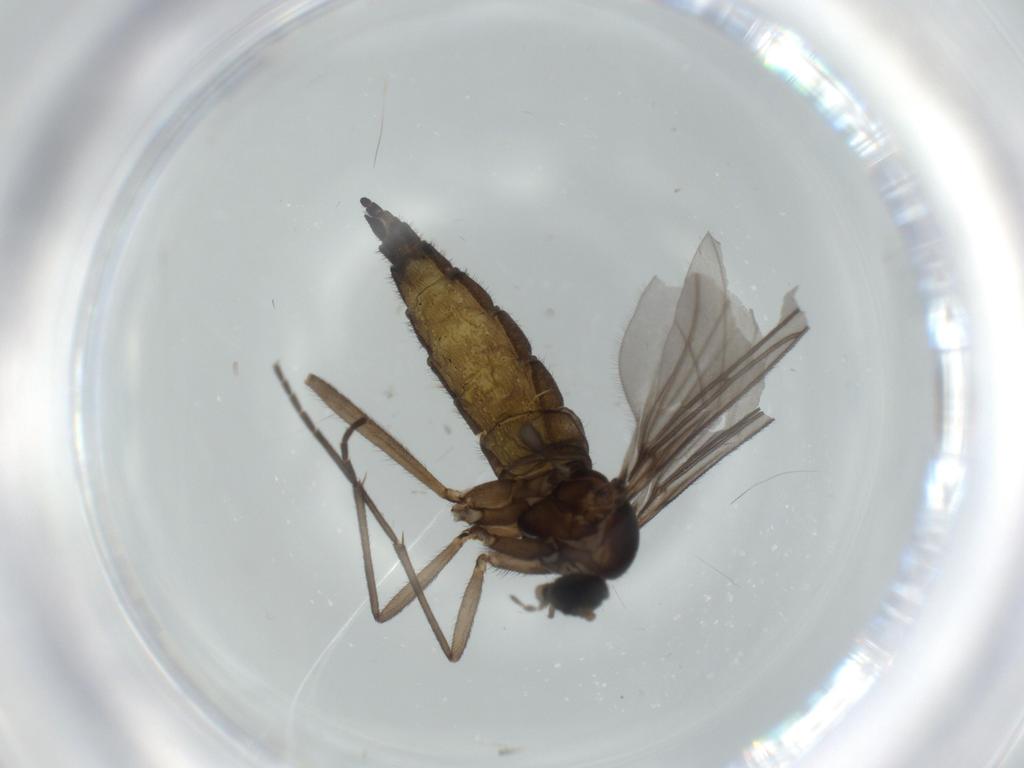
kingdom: Animalia
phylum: Arthropoda
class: Insecta
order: Diptera
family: Sciaridae
